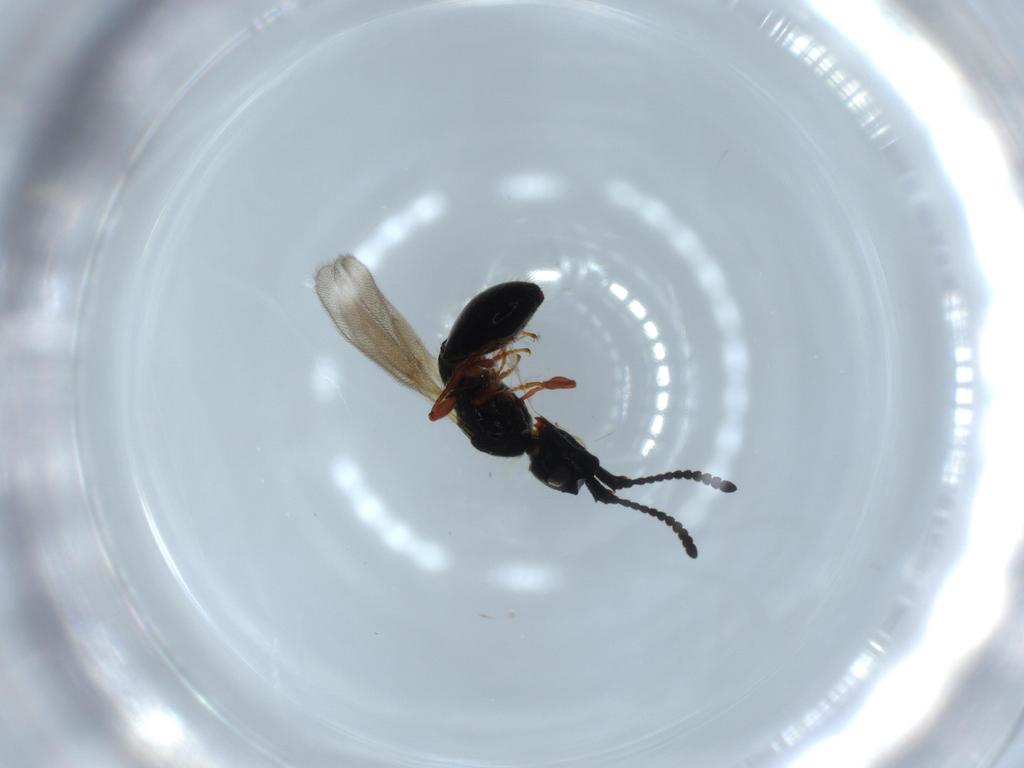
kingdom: Animalia
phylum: Arthropoda
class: Insecta
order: Hymenoptera
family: Diapriidae
